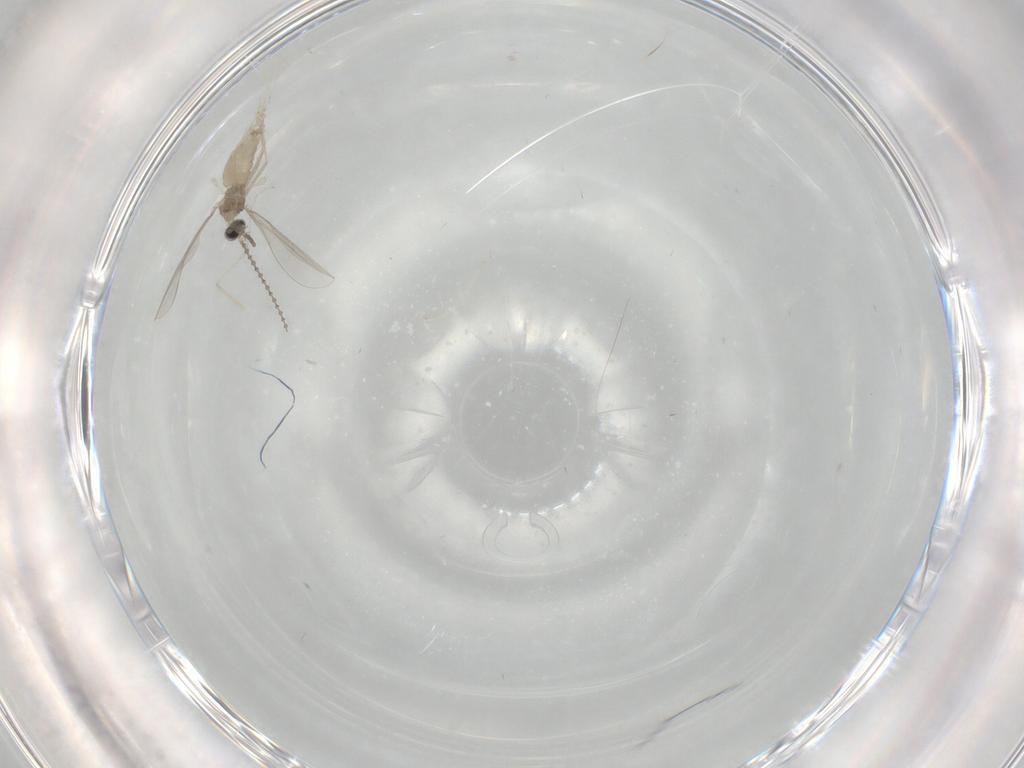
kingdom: Animalia
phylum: Arthropoda
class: Insecta
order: Diptera
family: Cecidomyiidae
